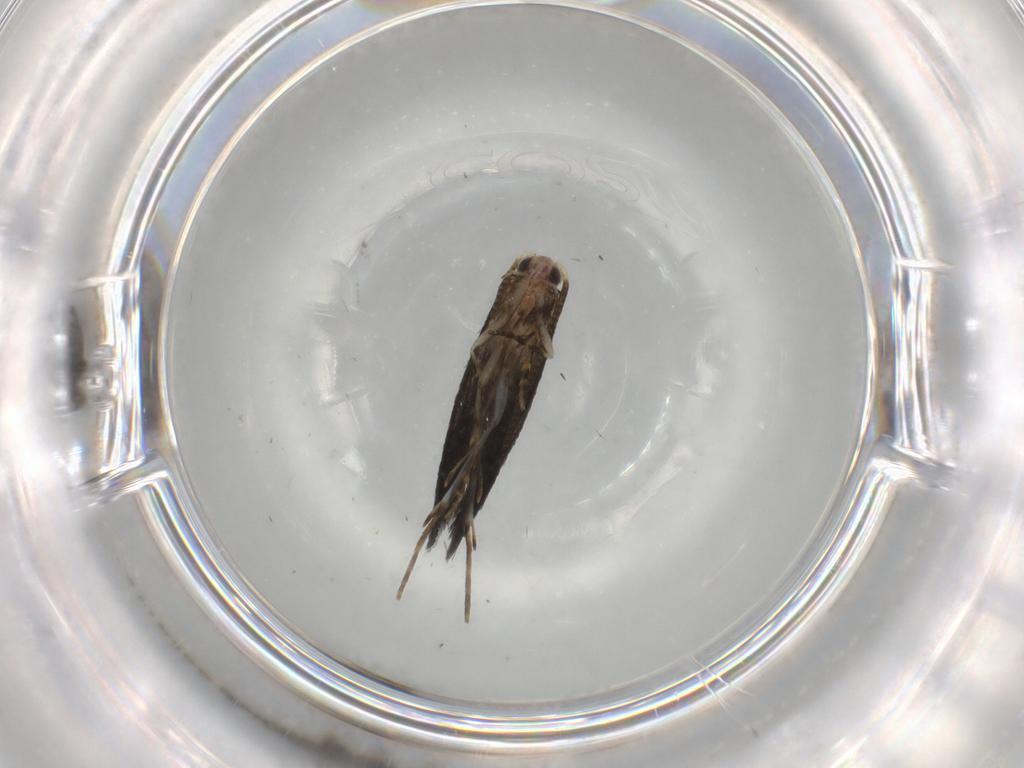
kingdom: Animalia
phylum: Arthropoda
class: Insecta
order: Lepidoptera
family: Tineidae
